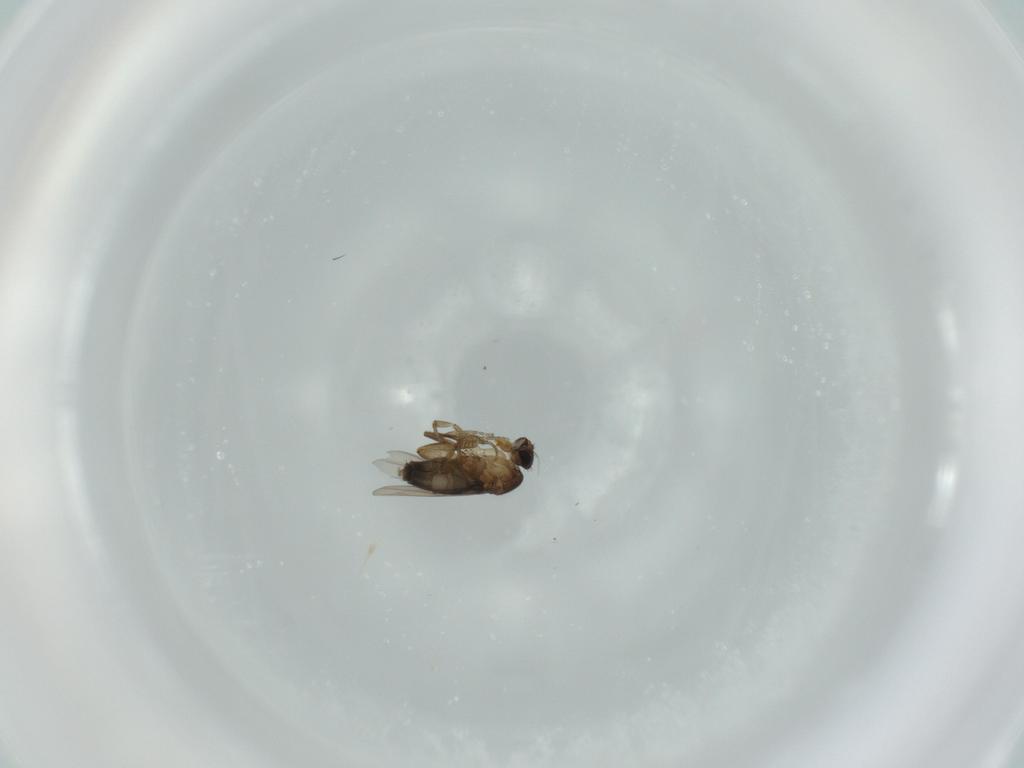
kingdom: Animalia
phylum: Arthropoda
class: Insecta
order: Diptera
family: Phoridae
